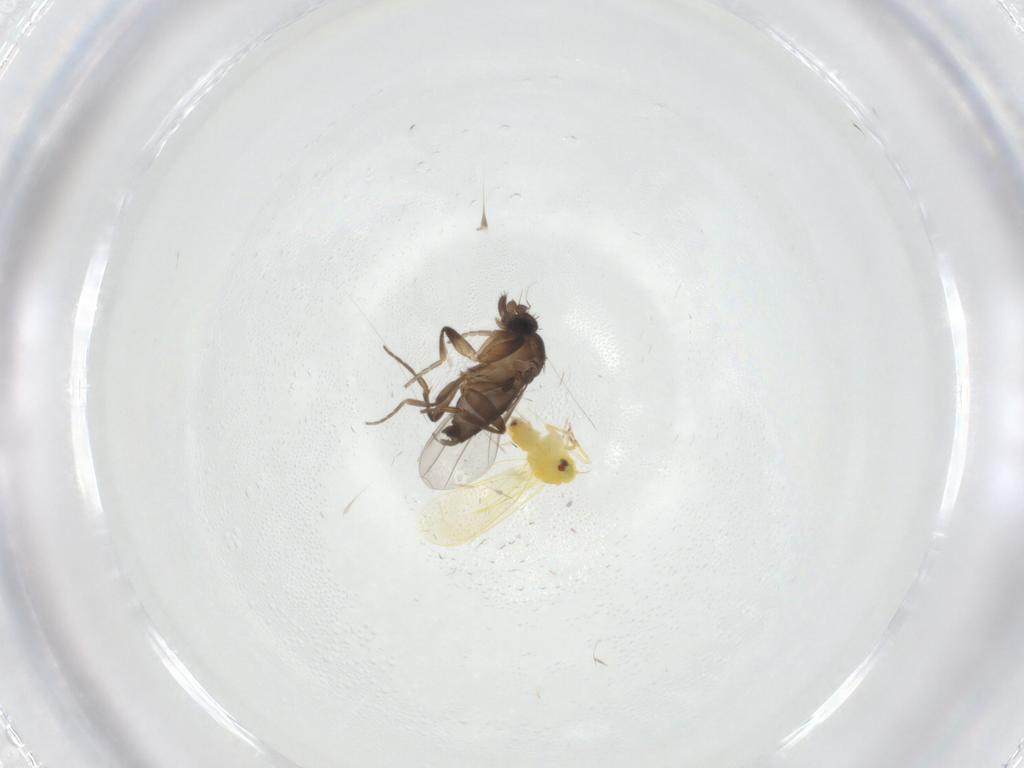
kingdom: Animalia
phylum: Arthropoda
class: Insecta
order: Diptera
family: Phoridae
